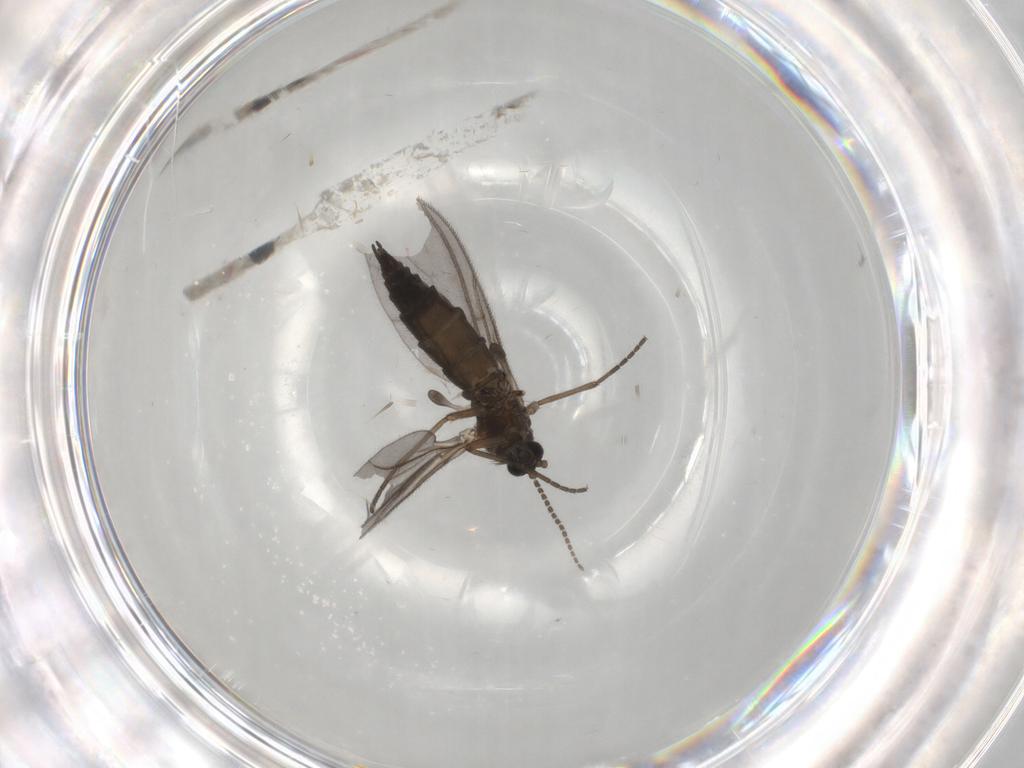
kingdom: Animalia
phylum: Arthropoda
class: Insecta
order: Diptera
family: Sciaridae
